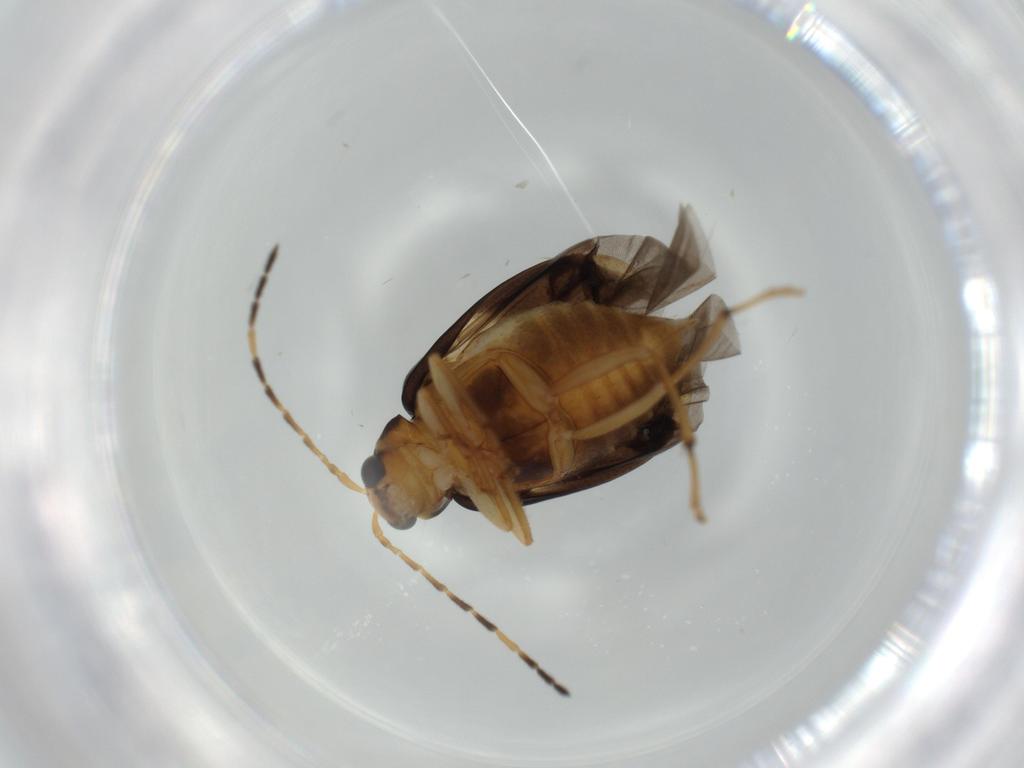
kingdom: Animalia
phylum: Arthropoda
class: Insecta
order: Coleoptera
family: Chrysomelidae
